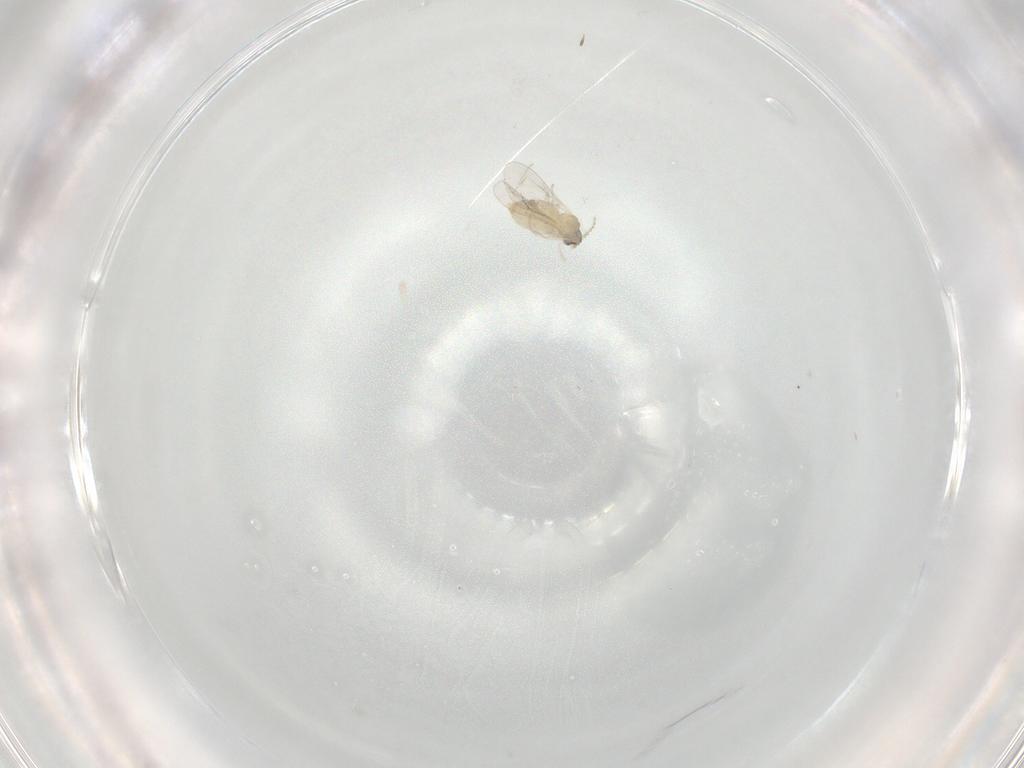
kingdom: Animalia
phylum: Arthropoda
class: Insecta
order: Diptera
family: Cecidomyiidae
